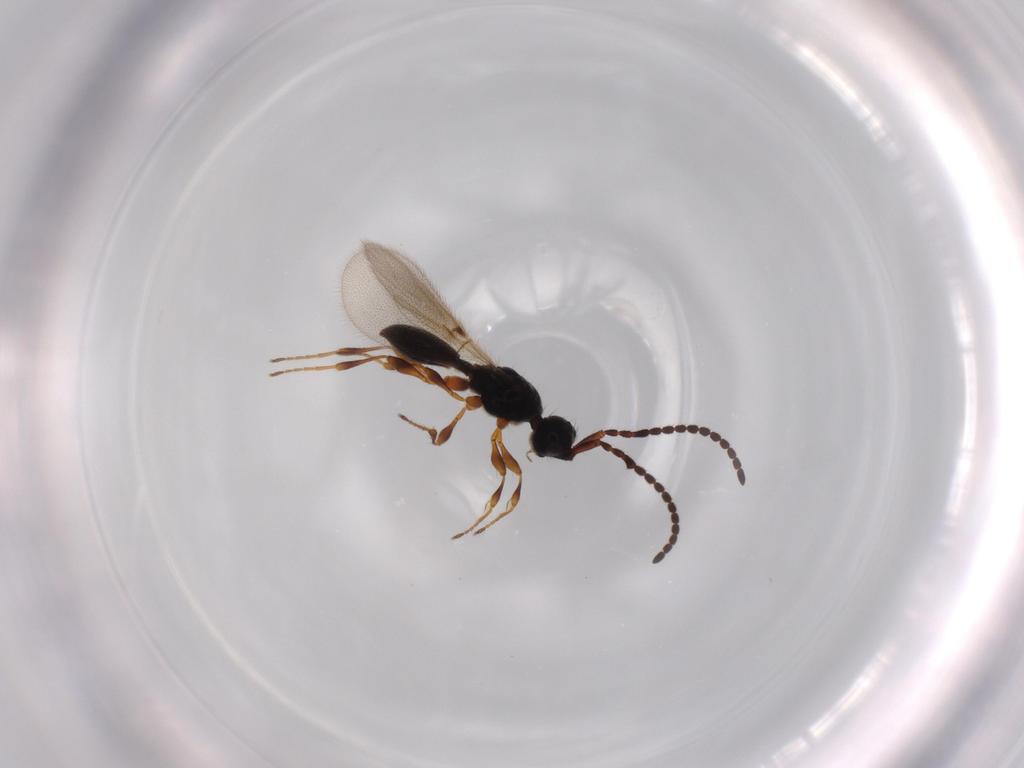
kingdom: Animalia
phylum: Arthropoda
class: Insecta
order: Hymenoptera
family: Diapriidae
